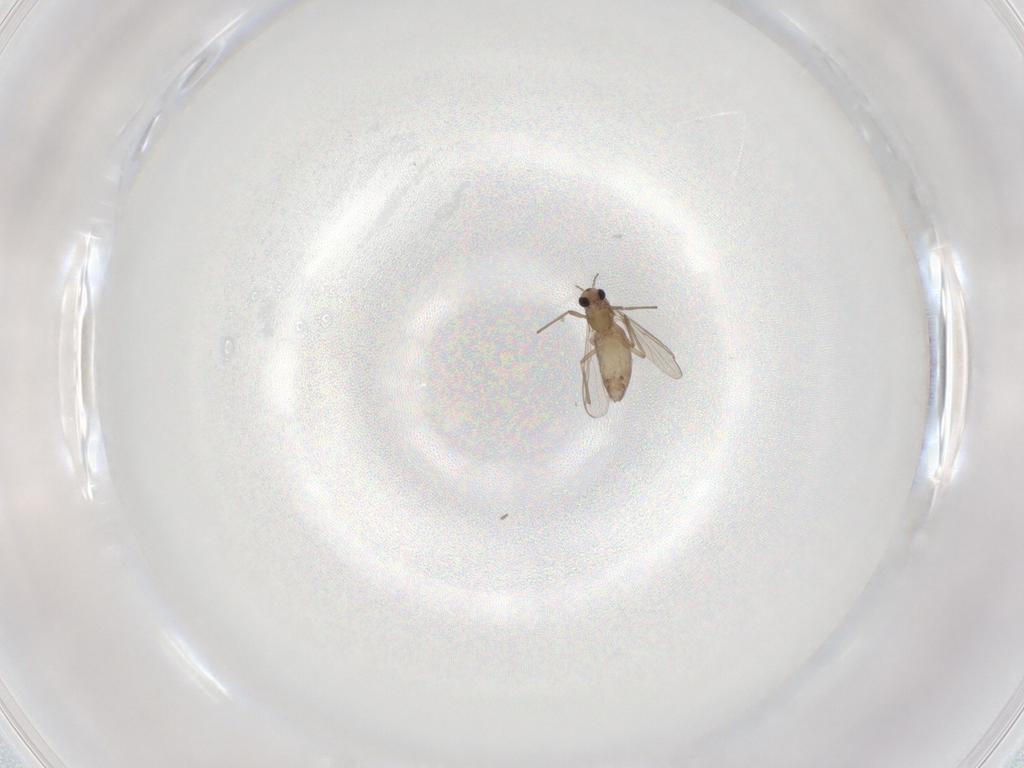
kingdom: Animalia
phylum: Arthropoda
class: Insecta
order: Diptera
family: Chironomidae
